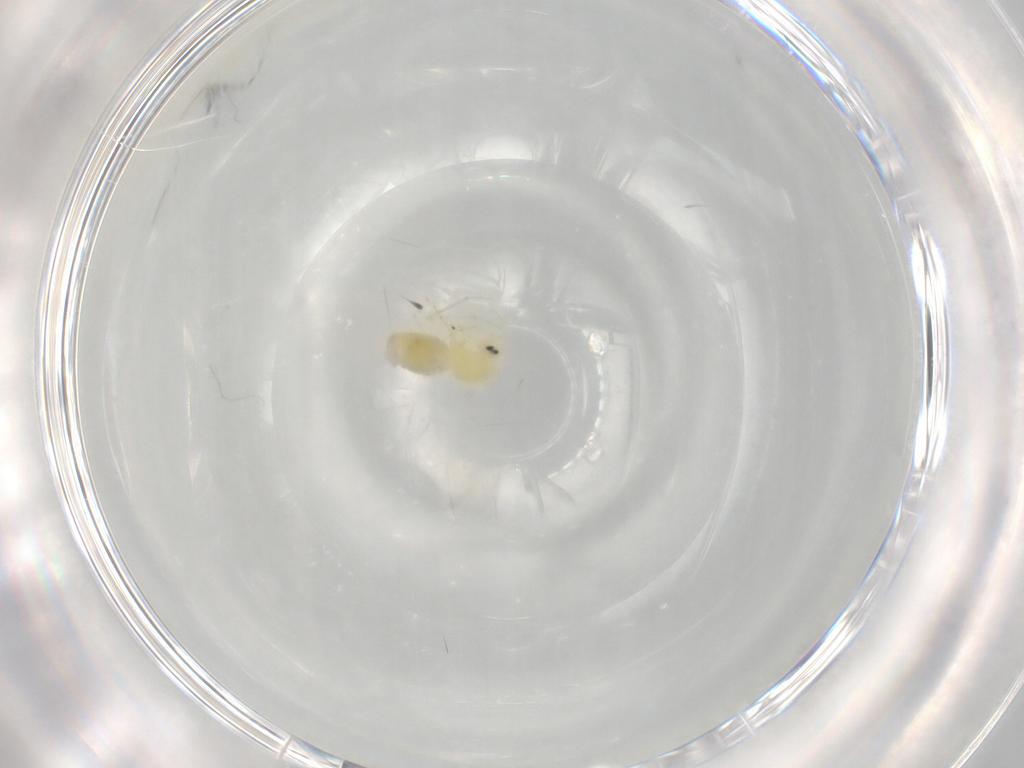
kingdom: Animalia
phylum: Arthropoda
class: Insecta
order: Hemiptera
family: Aleyrodidae
